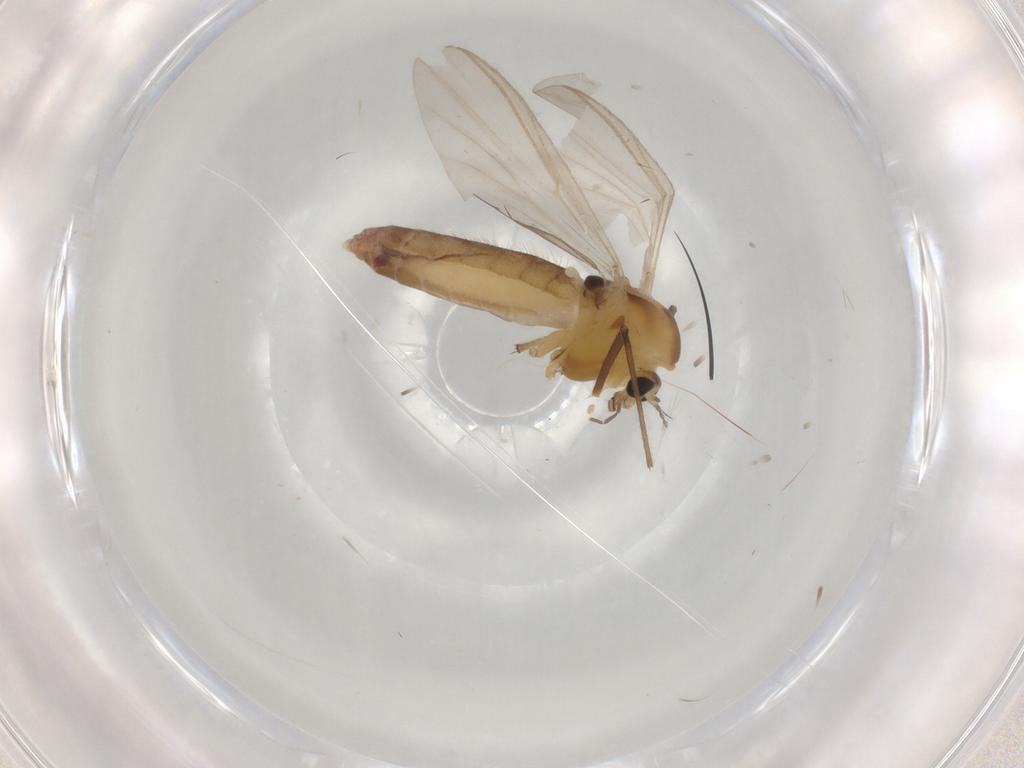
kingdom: Animalia
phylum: Arthropoda
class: Insecta
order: Diptera
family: Chironomidae
